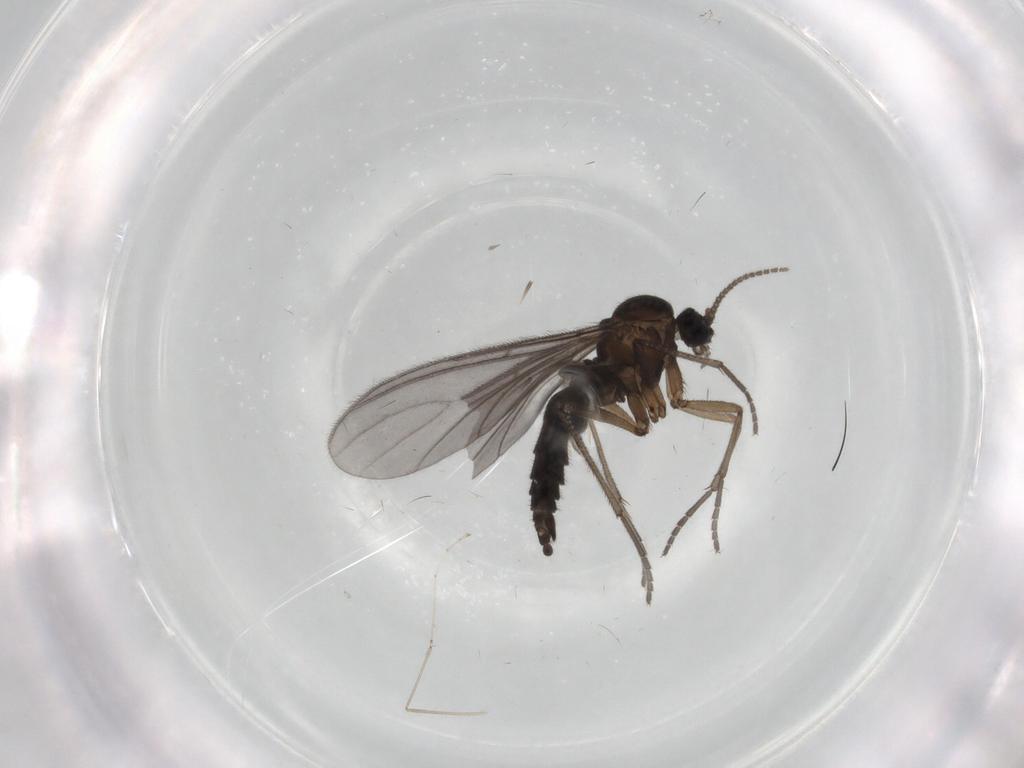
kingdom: Animalia
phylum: Arthropoda
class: Insecta
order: Diptera
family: Sciaridae
